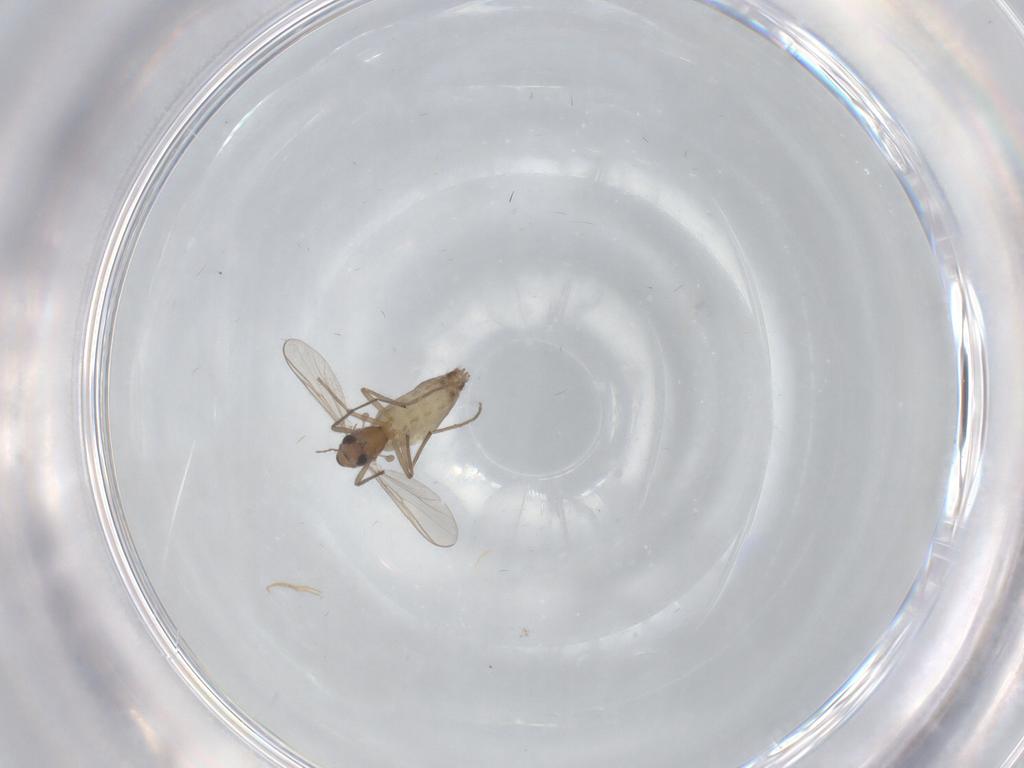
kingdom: Animalia
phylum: Arthropoda
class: Insecta
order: Diptera
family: Chironomidae
